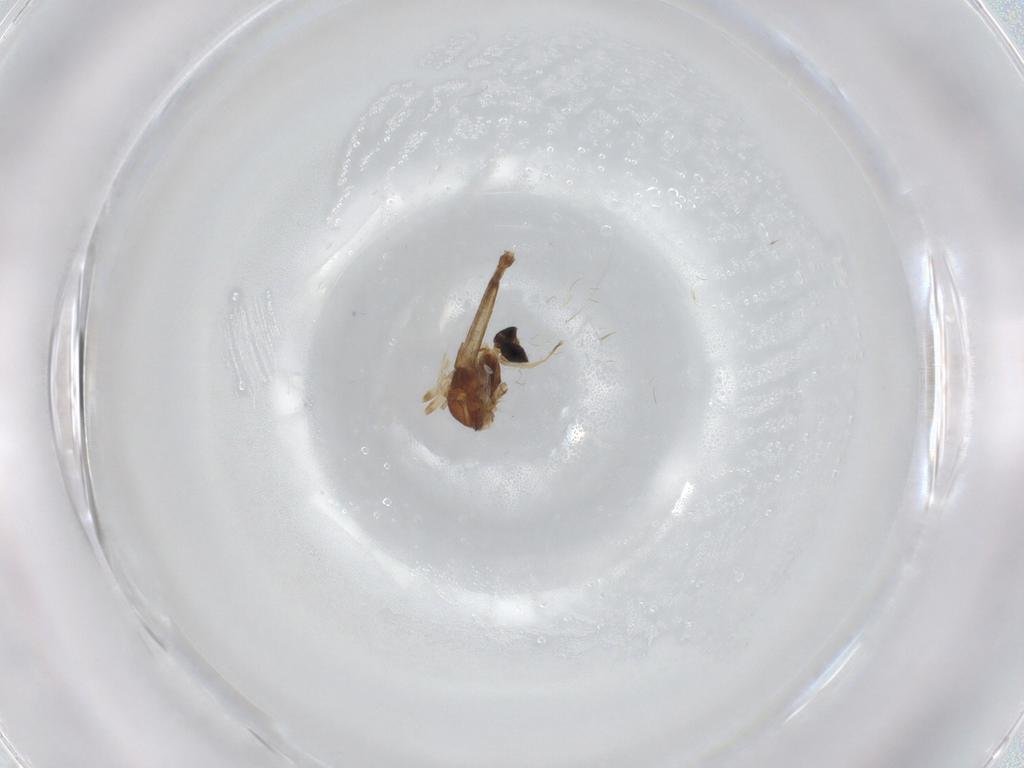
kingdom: Animalia
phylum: Arthropoda
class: Insecta
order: Diptera
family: Chironomidae
